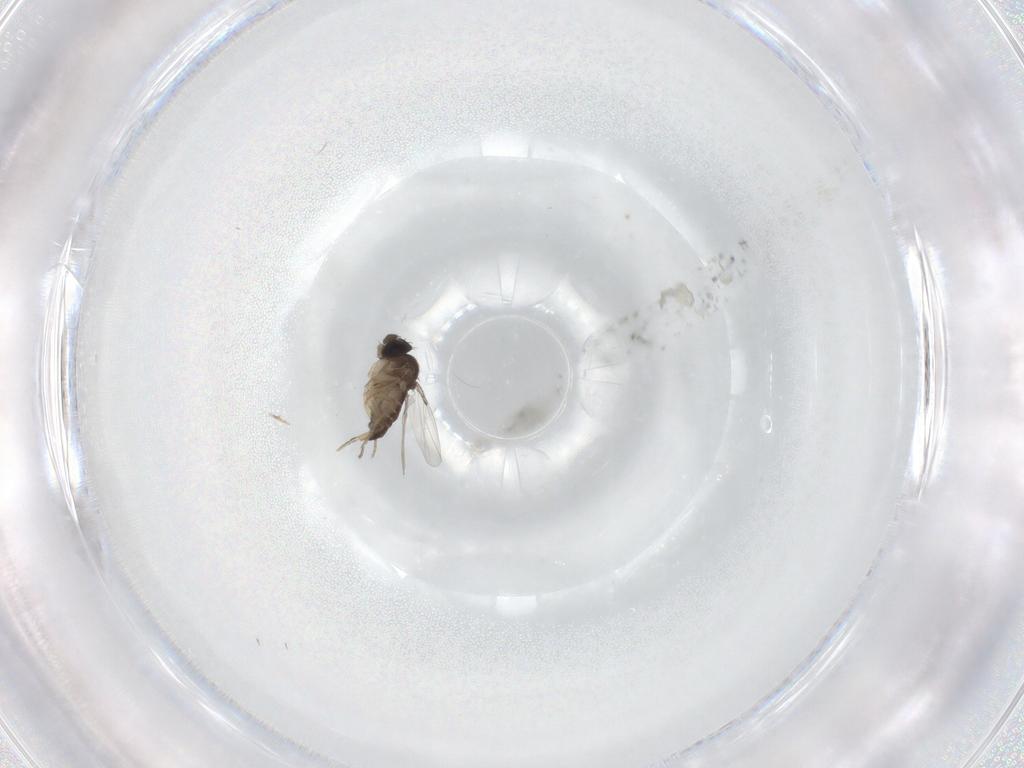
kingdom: Animalia
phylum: Arthropoda
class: Insecta
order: Diptera
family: Phoridae
